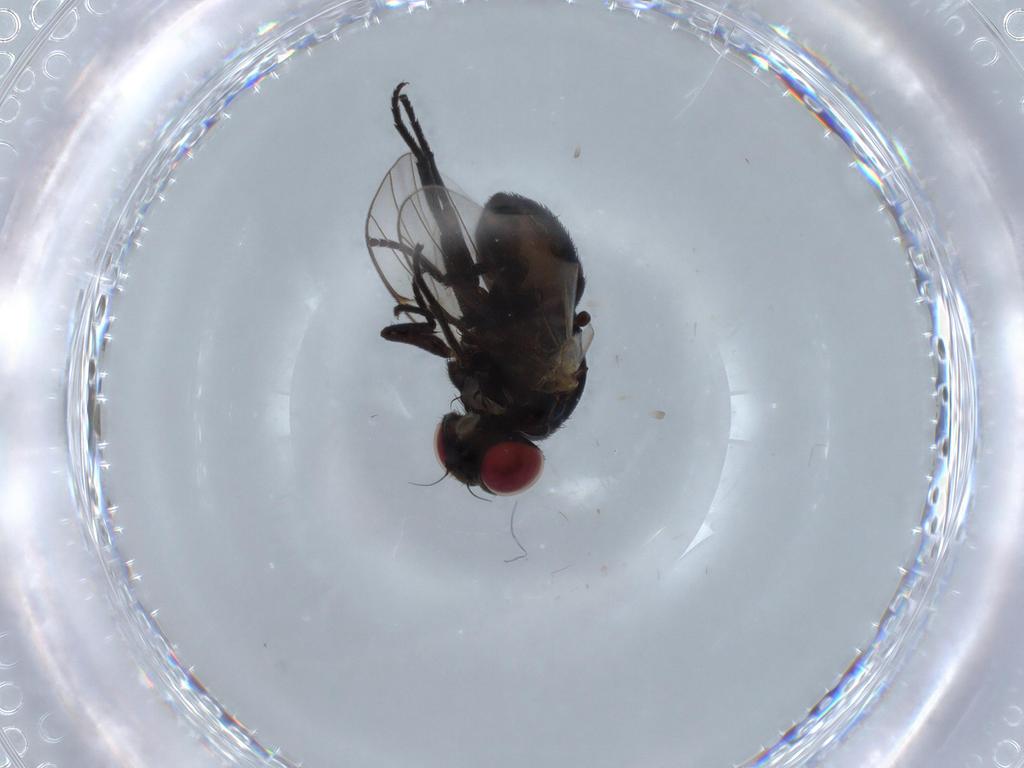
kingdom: Animalia
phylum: Arthropoda
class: Insecta
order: Diptera
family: Agromyzidae
